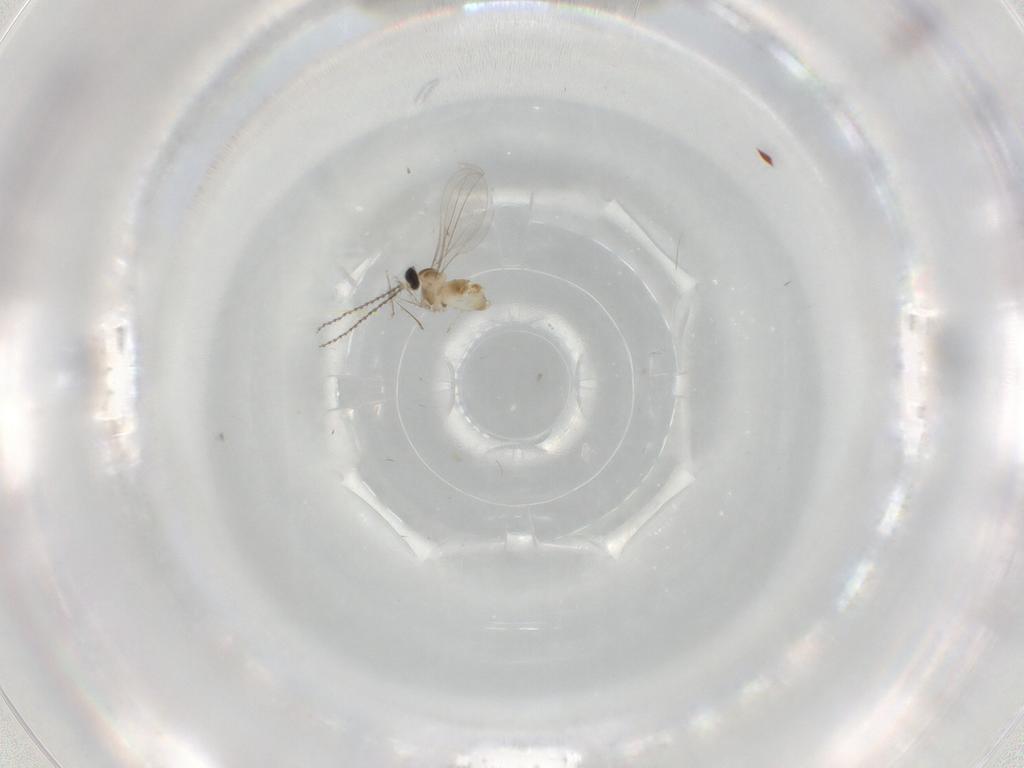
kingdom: Animalia
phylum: Arthropoda
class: Insecta
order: Diptera
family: Cecidomyiidae
